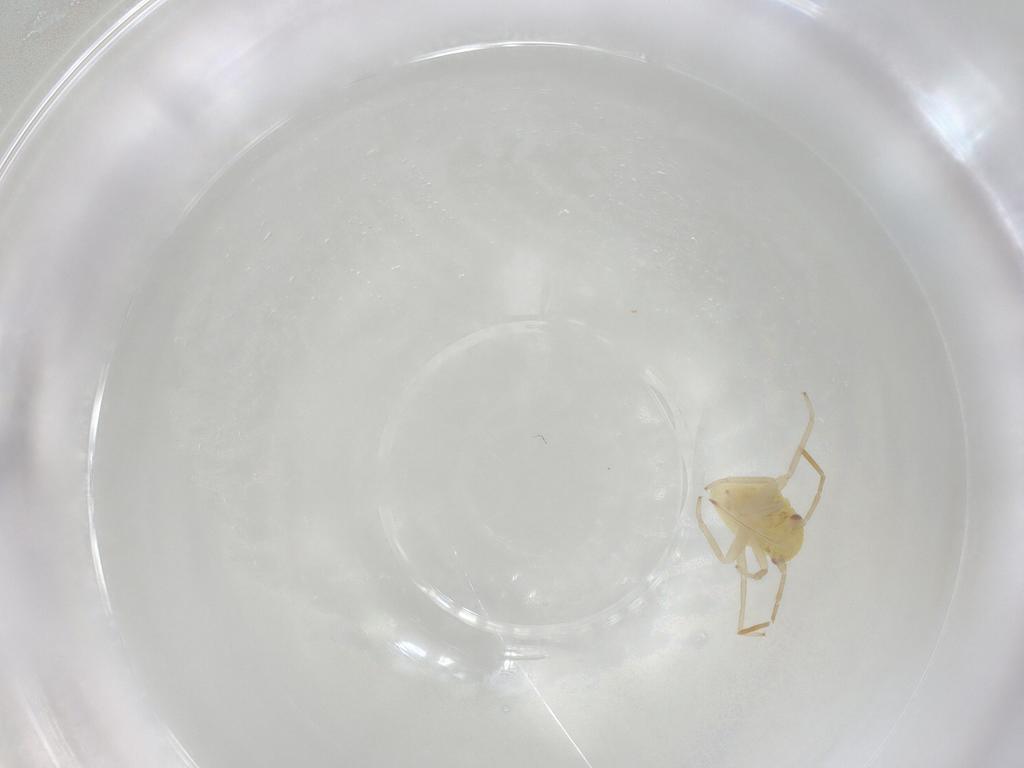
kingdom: Animalia
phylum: Arthropoda
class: Insecta
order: Hemiptera
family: Miridae
